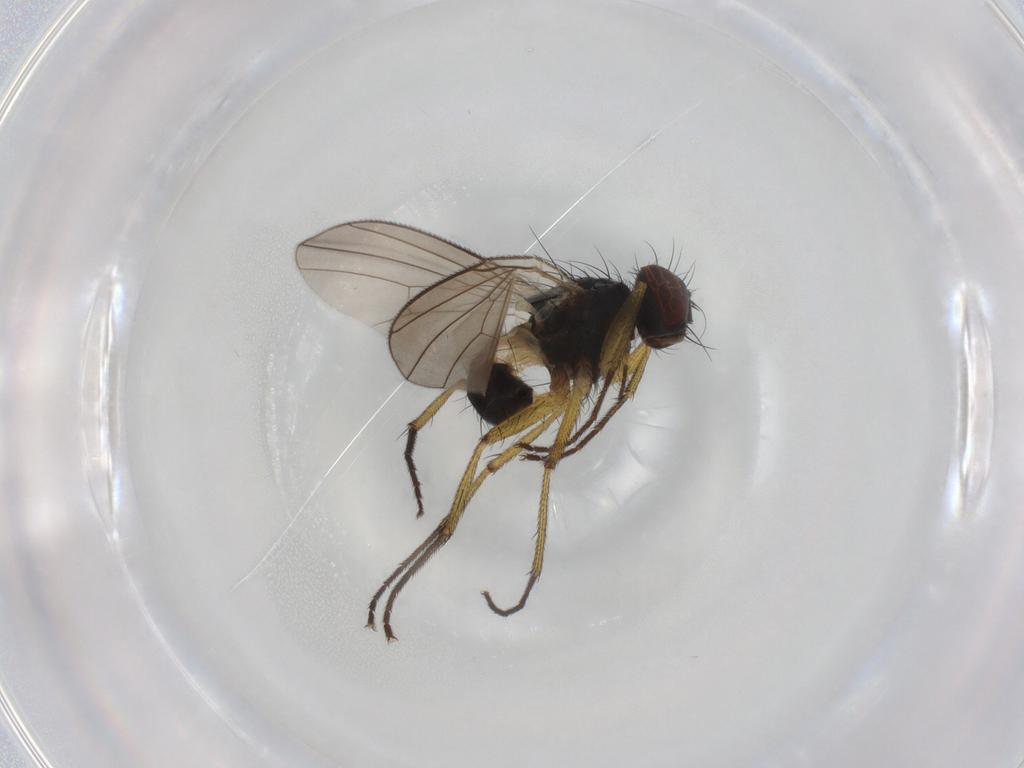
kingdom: Animalia
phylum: Arthropoda
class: Insecta
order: Diptera
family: Muscidae
